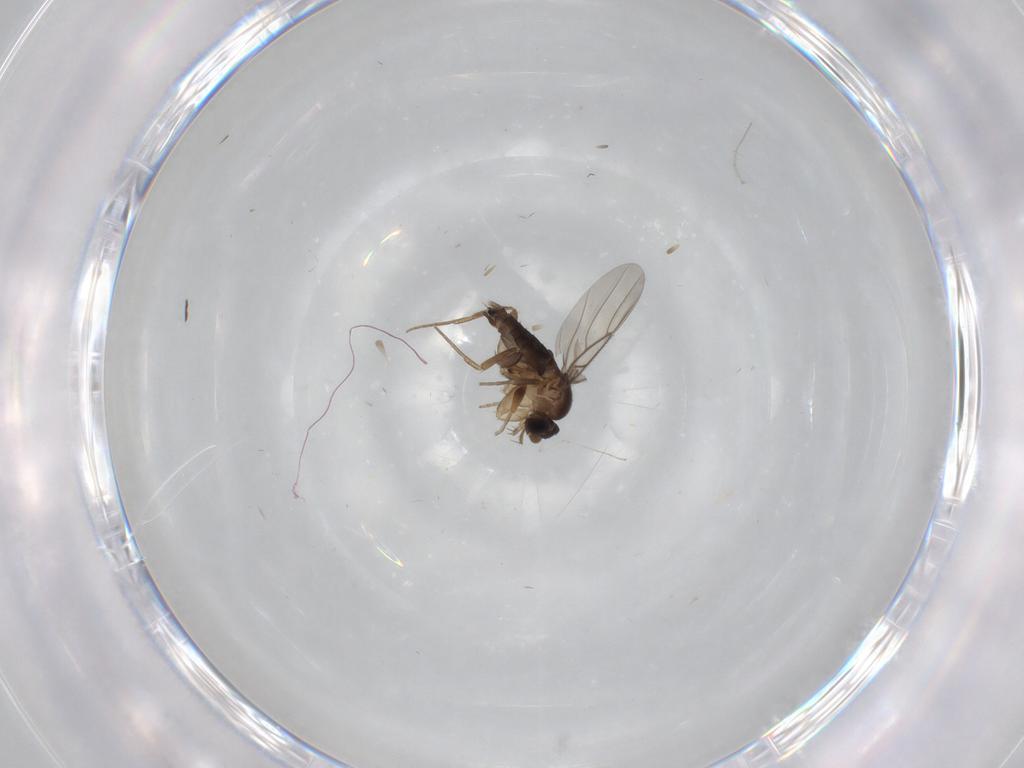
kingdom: Animalia
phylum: Arthropoda
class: Insecta
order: Diptera
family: Phoridae
